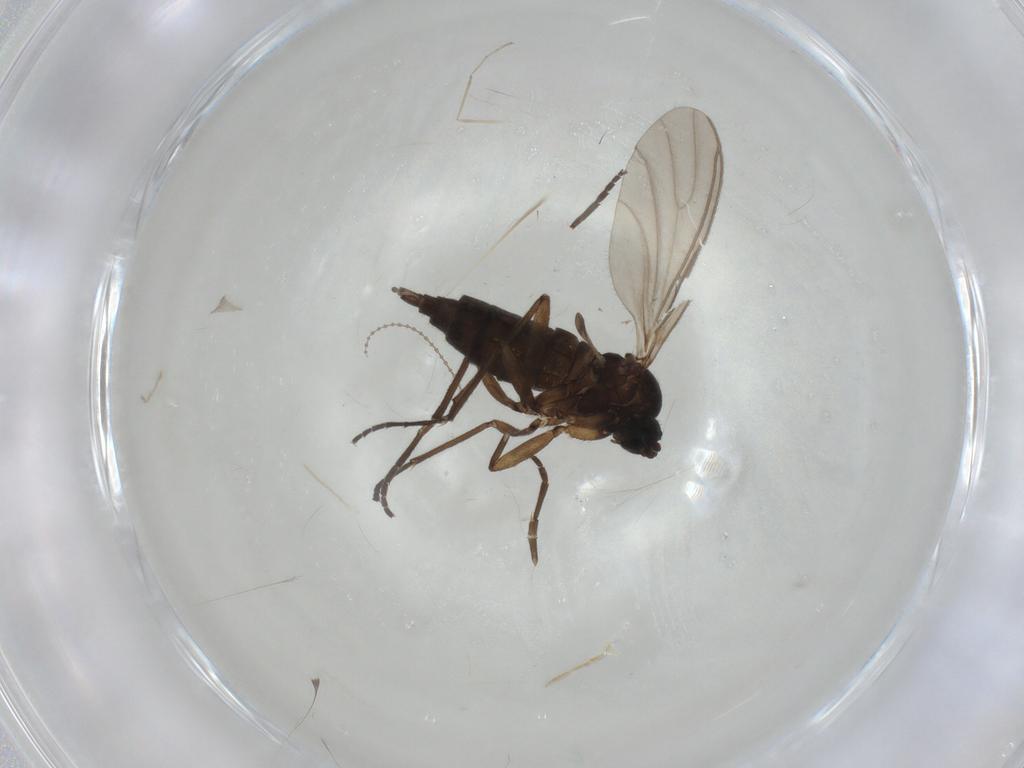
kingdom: Animalia
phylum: Arthropoda
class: Insecta
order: Diptera
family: Sciaridae
